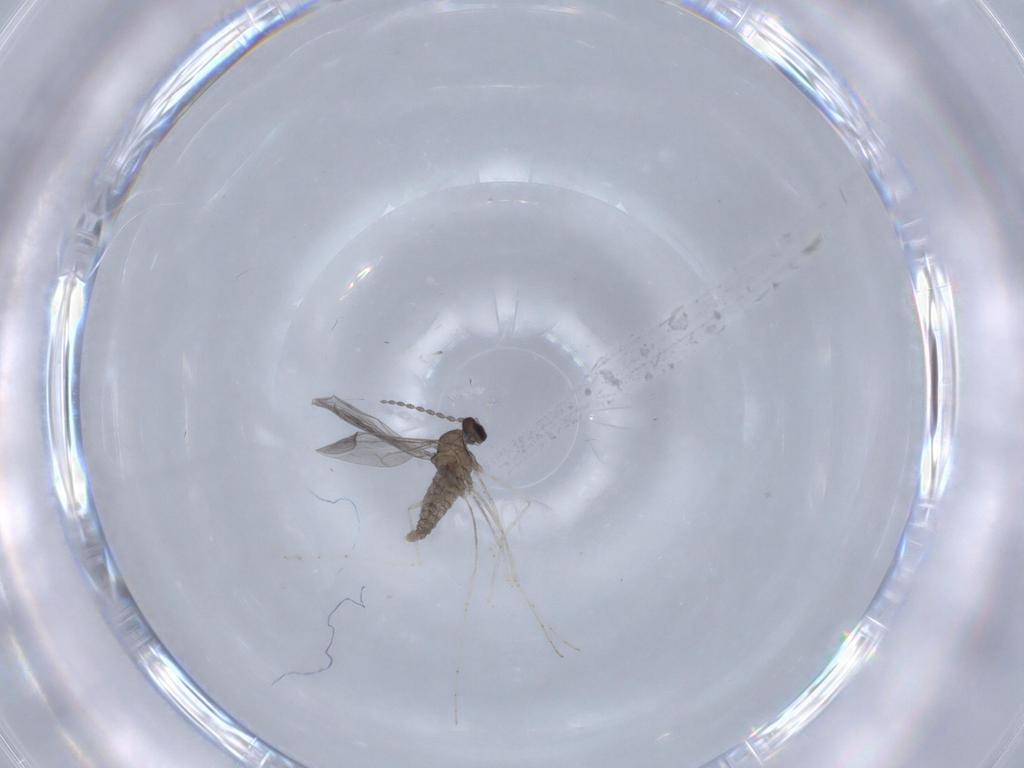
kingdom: Animalia
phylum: Arthropoda
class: Insecta
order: Diptera
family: Cecidomyiidae
